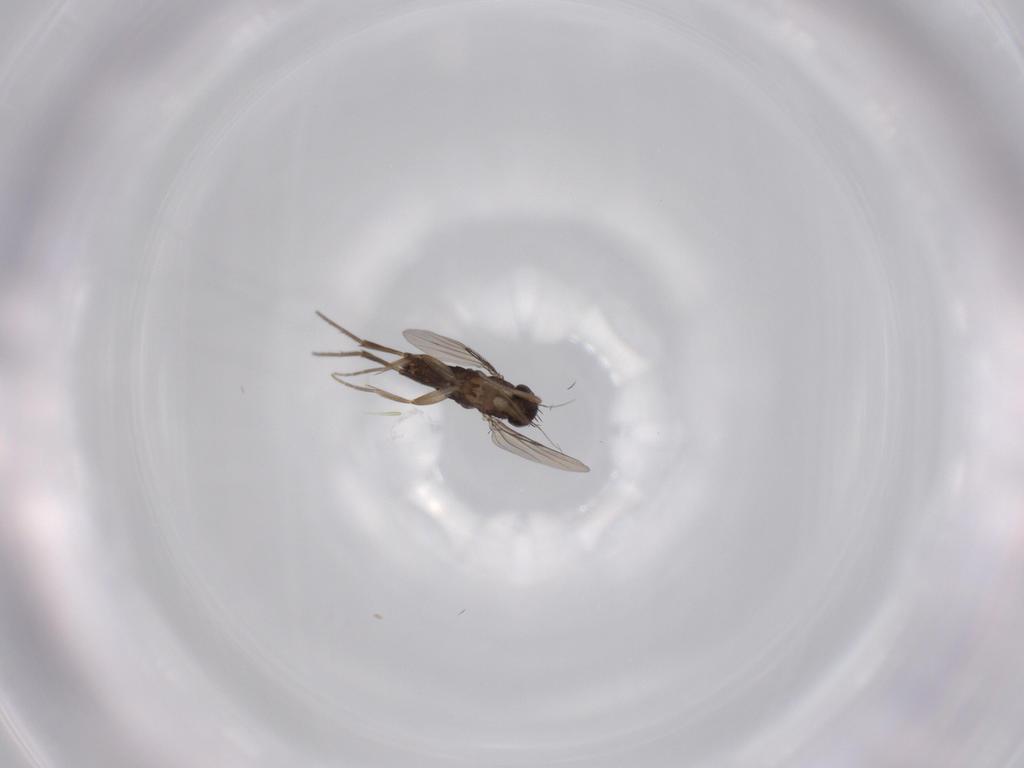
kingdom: Animalia
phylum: Arthropoda
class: Insecta
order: Diptera
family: Phoridae
